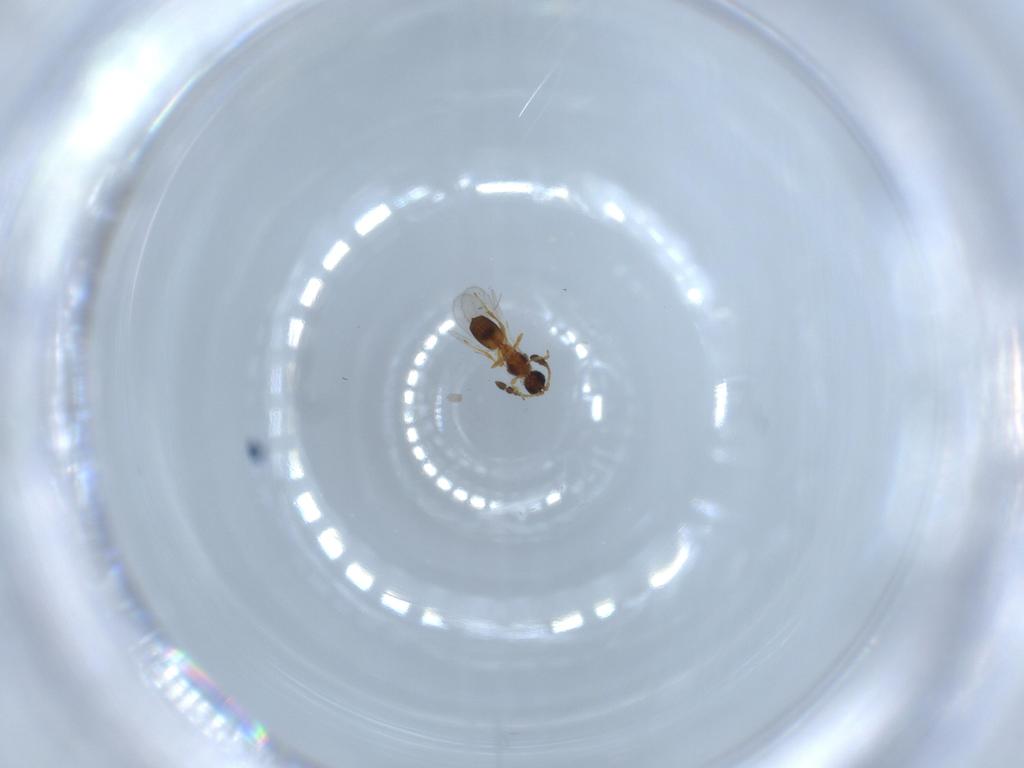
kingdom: Animalia
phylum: Arthropoda
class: Insecta
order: Hymenoptera
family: Diapriidae
